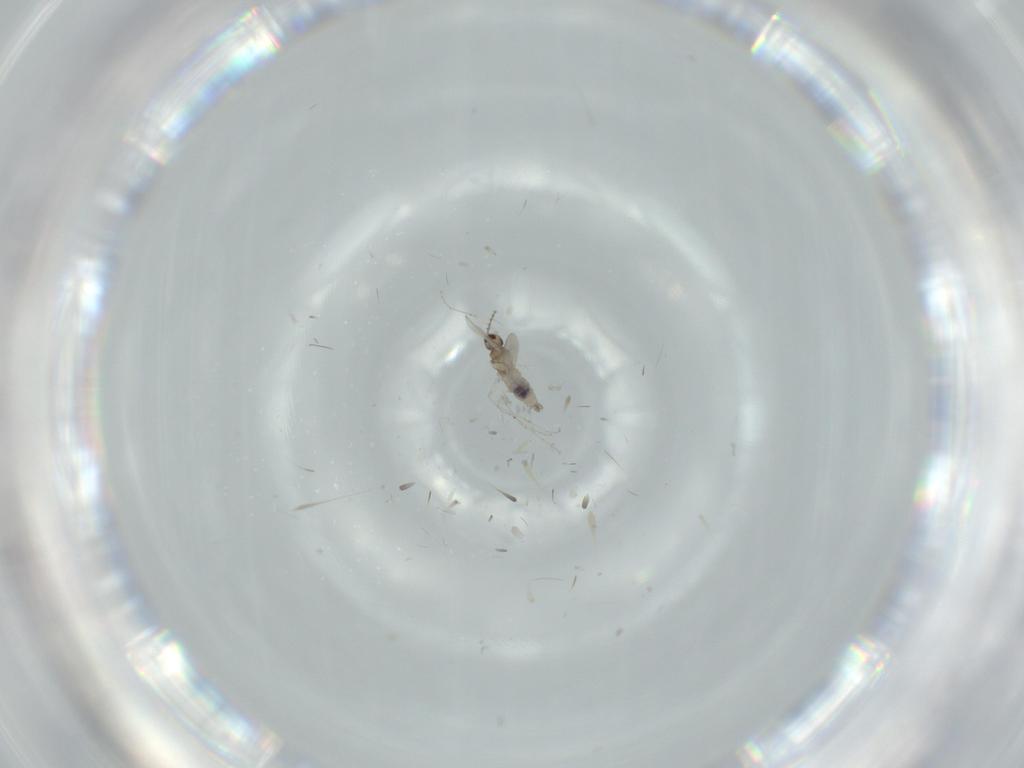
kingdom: Animalia
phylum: Arthropoda
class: Insecta
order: Diptera
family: Cecidomyiidae
